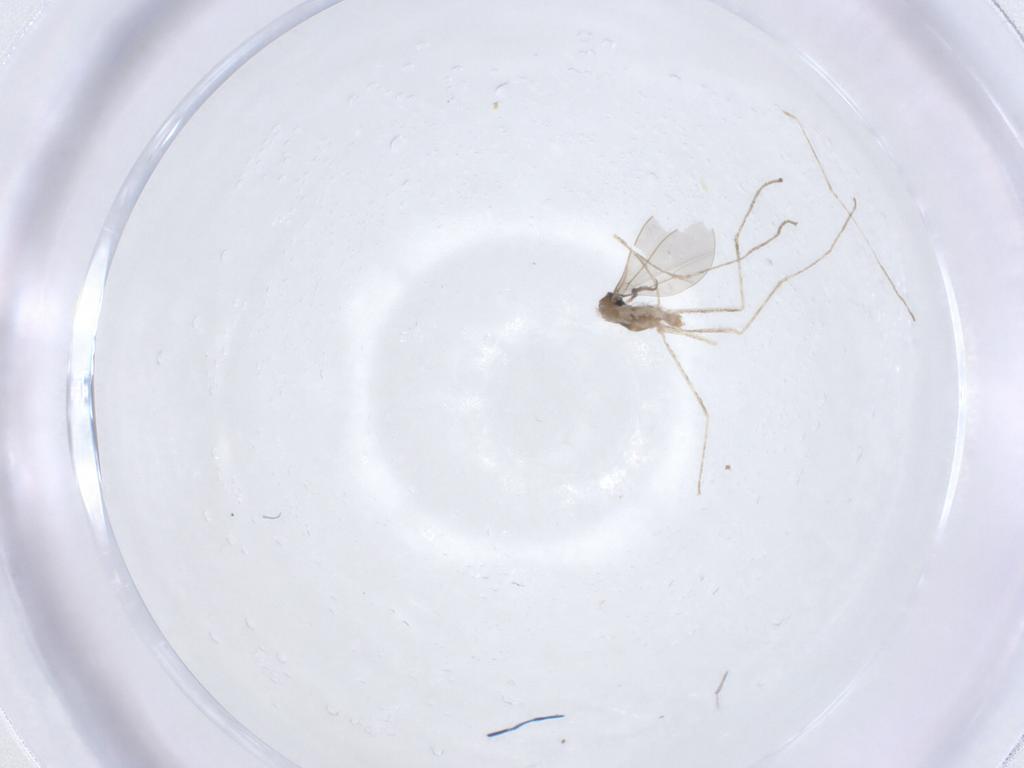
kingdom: Animalia
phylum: Arthropoda
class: Insecta
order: Diptera
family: Cecidomyiidae
